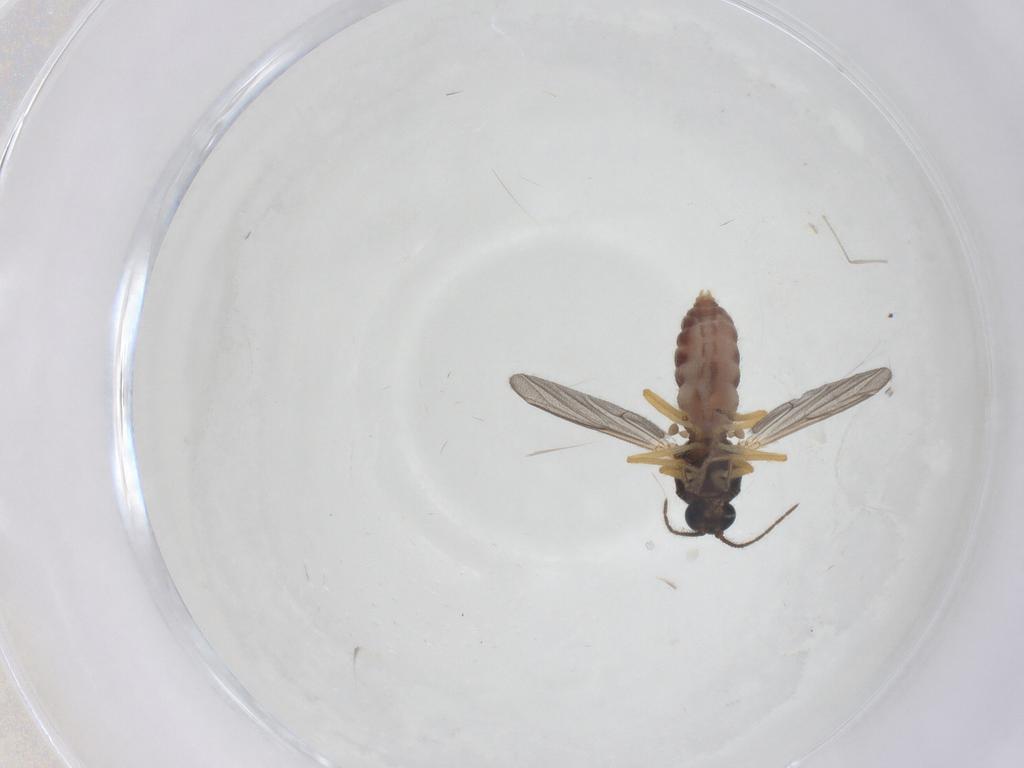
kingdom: Animalia
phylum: Arthropoda
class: Insecta
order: Diptera
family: Ceratopogonidae
